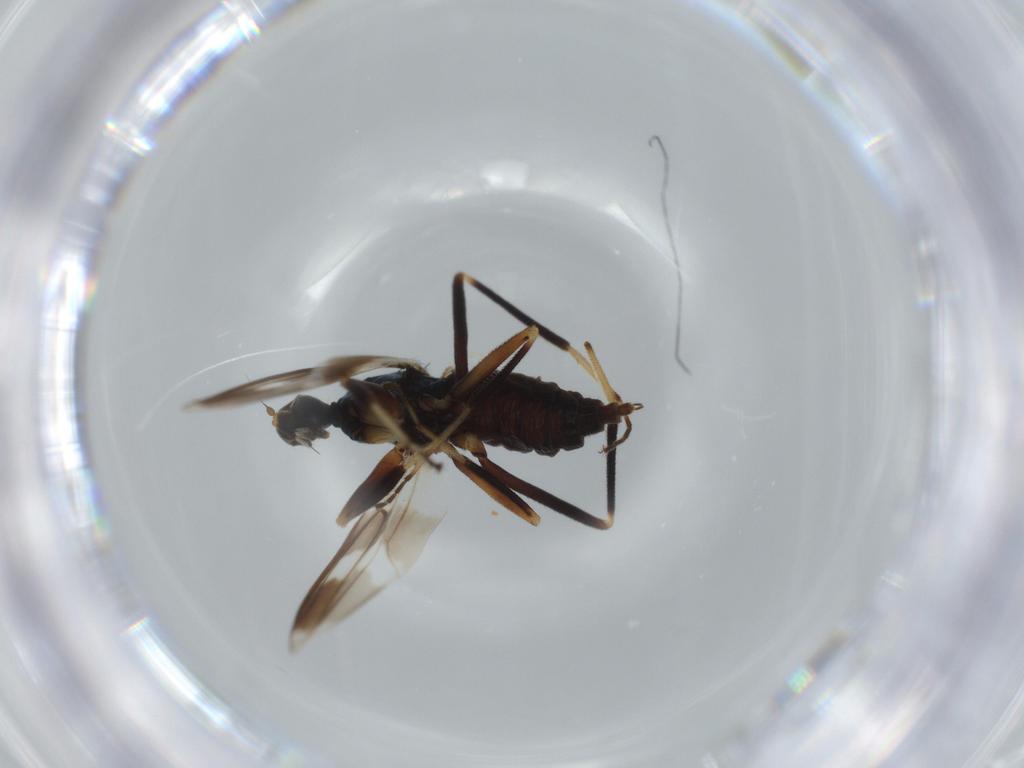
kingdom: Animalia
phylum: Arthropoda
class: Insecta
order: Diptera
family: Hybotidae
